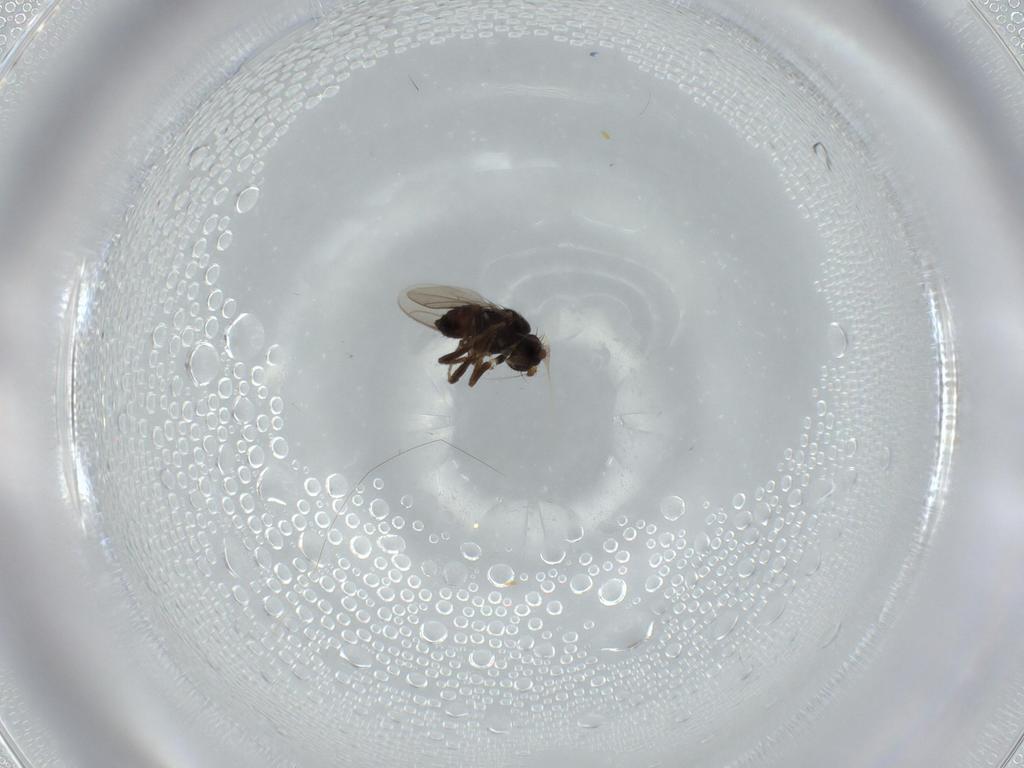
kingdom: Animalia
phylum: Arthropoda
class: Insecta
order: Diptera
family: Sphaeroceridae
